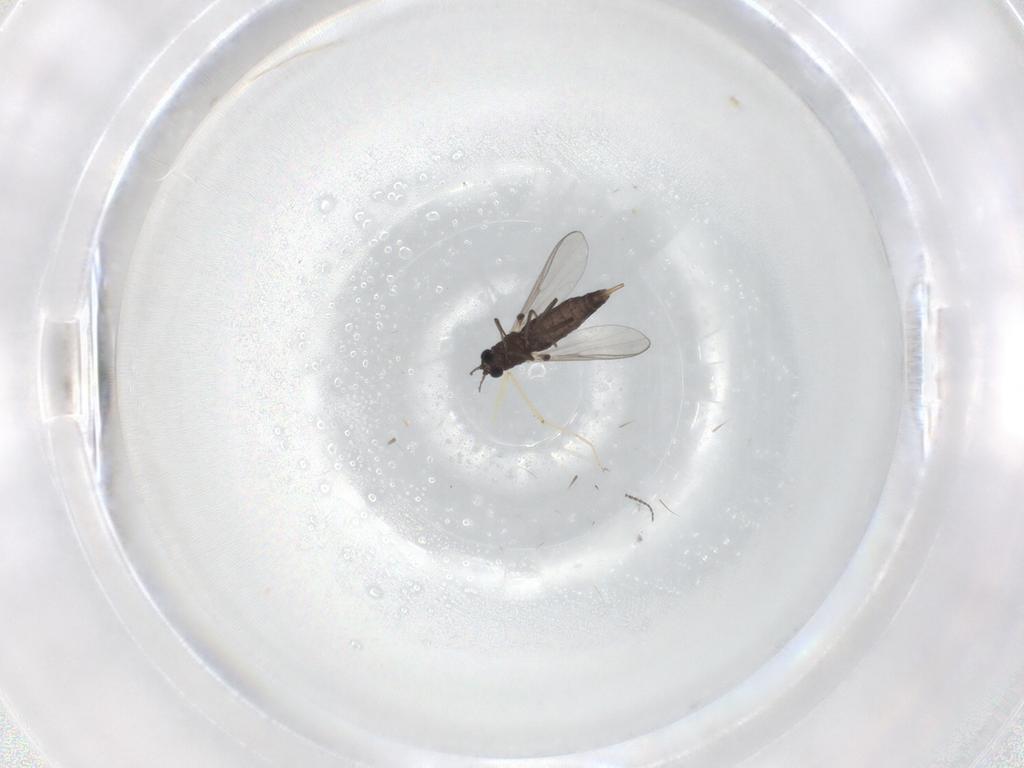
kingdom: Animalia
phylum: Arthropoda
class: Insecta
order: Diptera
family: Chironomidae
